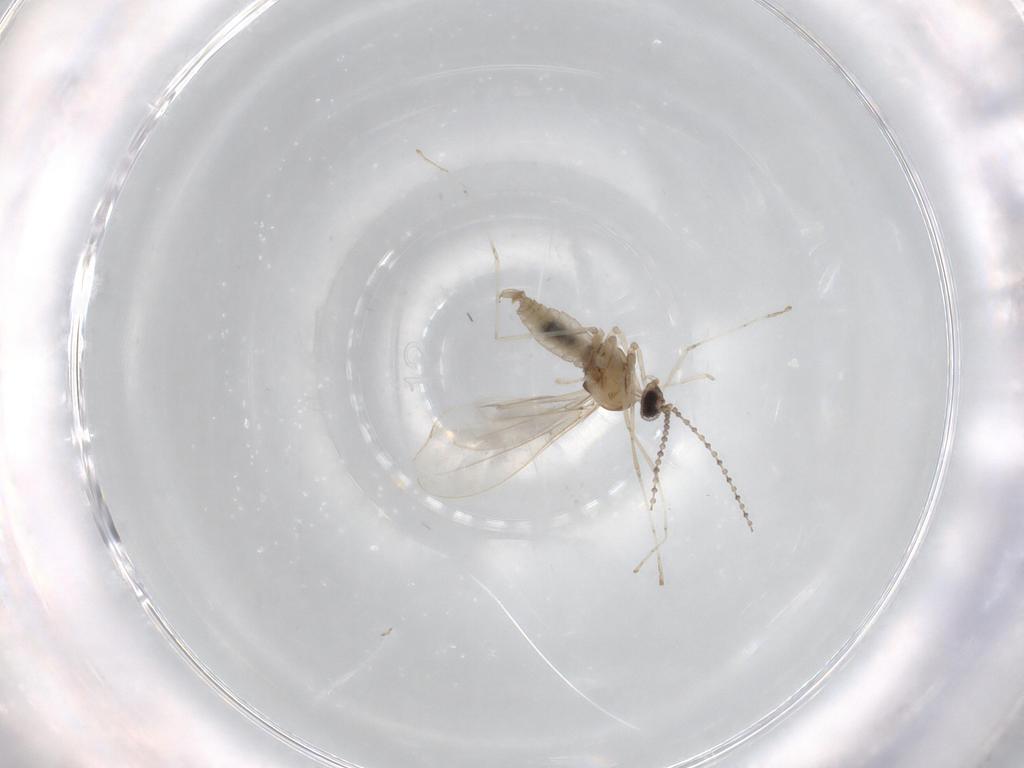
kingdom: Animalia
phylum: Arthropoda
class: Insecta
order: Diptera
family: Cecidomyiidae
